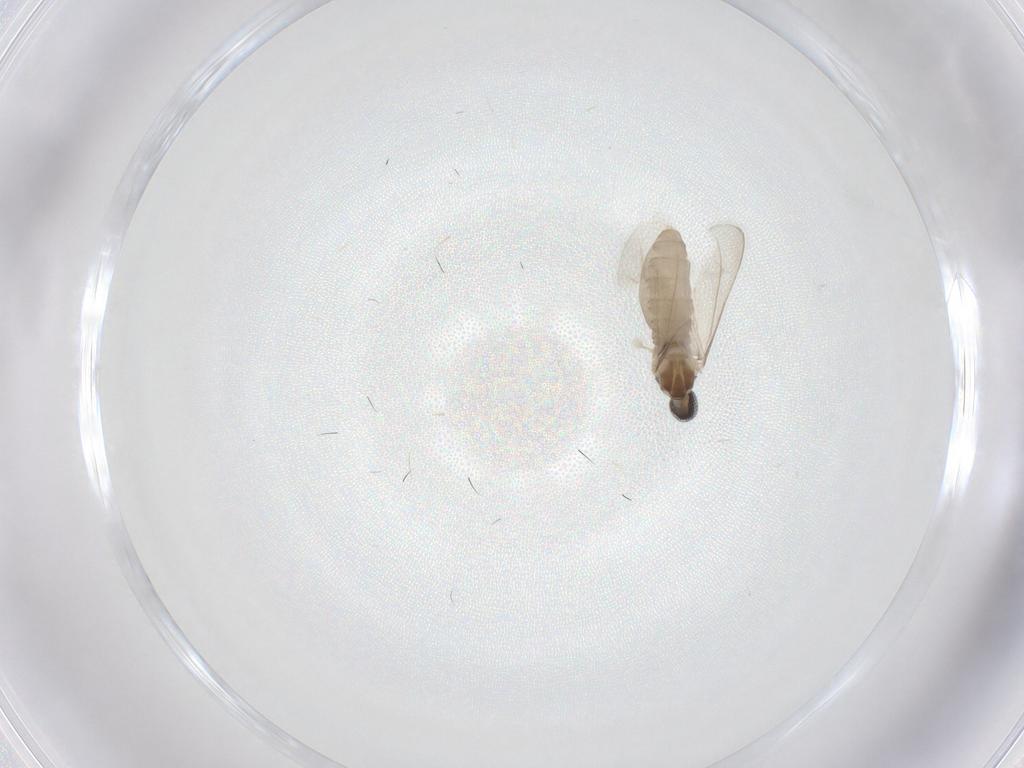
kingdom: Animalia
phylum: Arthropoda
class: Insecta
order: Diptera
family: Cecidomyiidae
